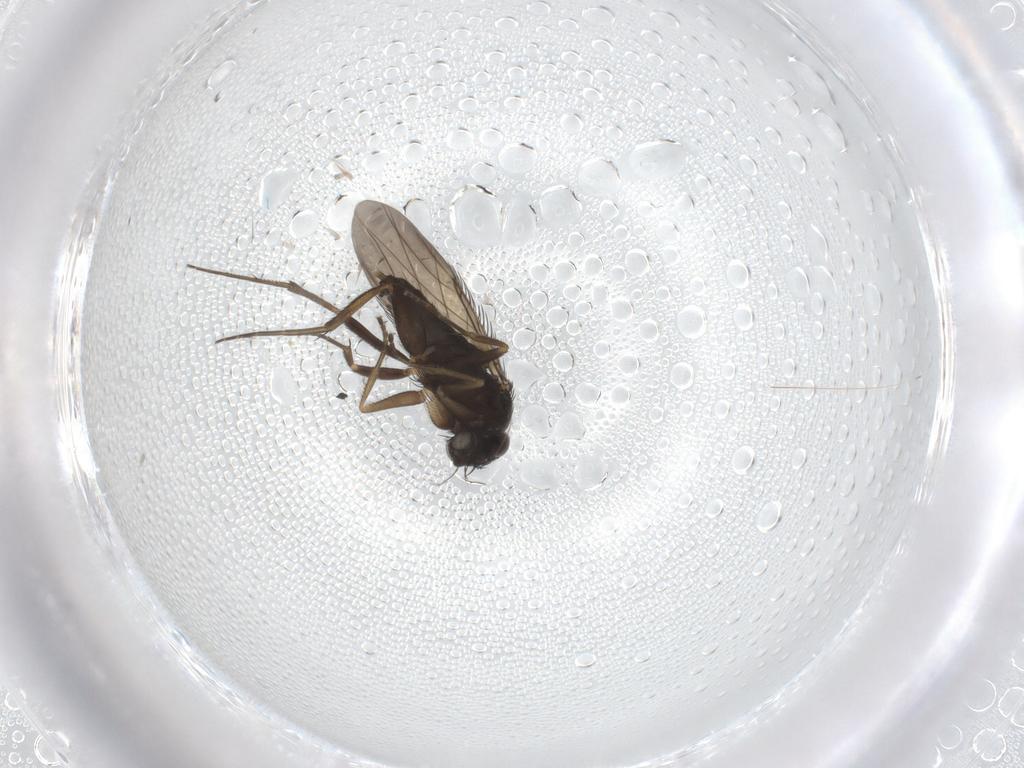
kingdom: Animalia
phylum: Arthropoda
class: Insecta
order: Diptera
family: Phoridae
